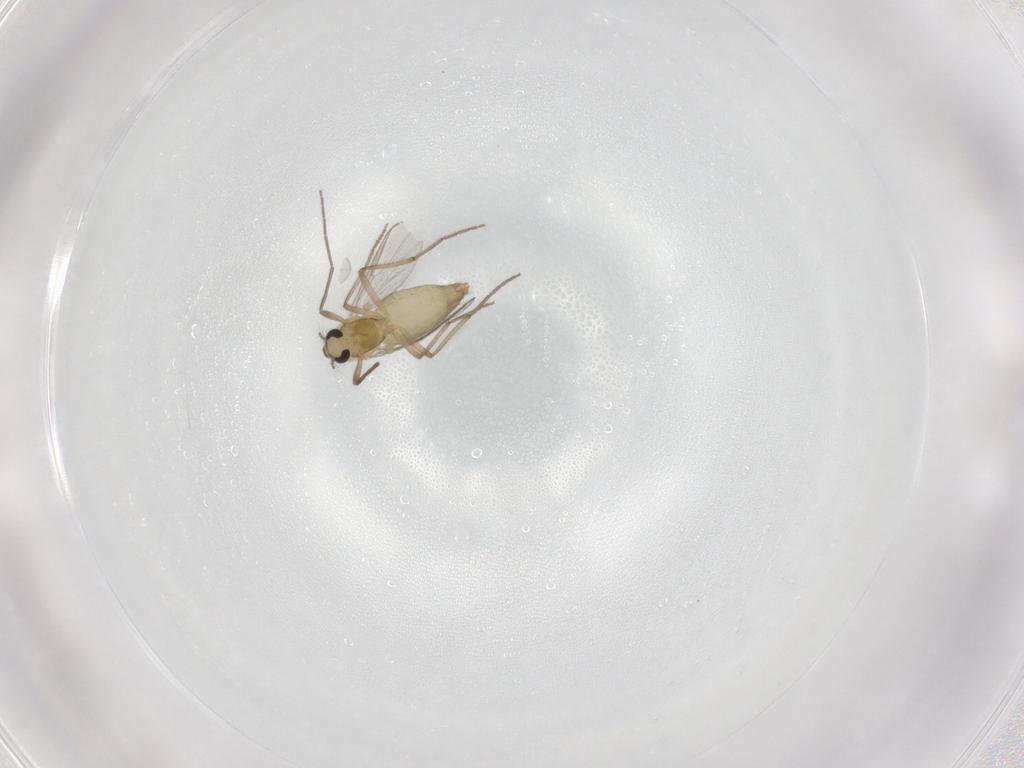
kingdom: Animalia
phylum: Arthropoda
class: Insecta
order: Diptera
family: Chironomidae
